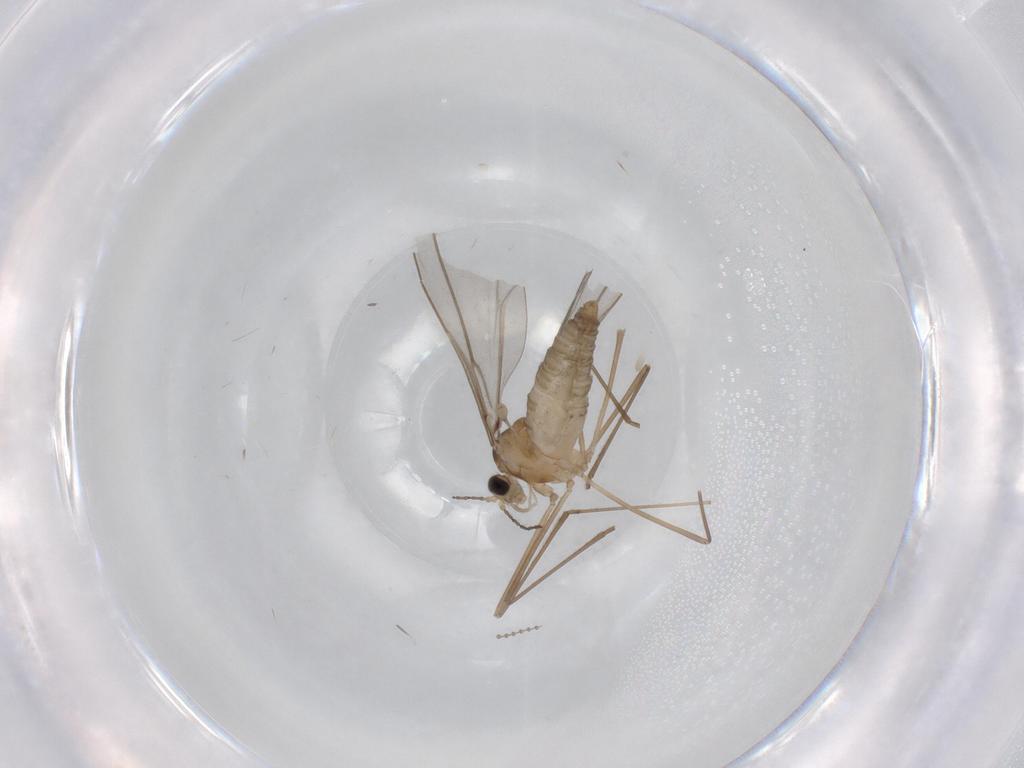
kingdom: Animalia
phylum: Arthropoda
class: Insecta
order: Diptera
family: Cecidomyiidae
